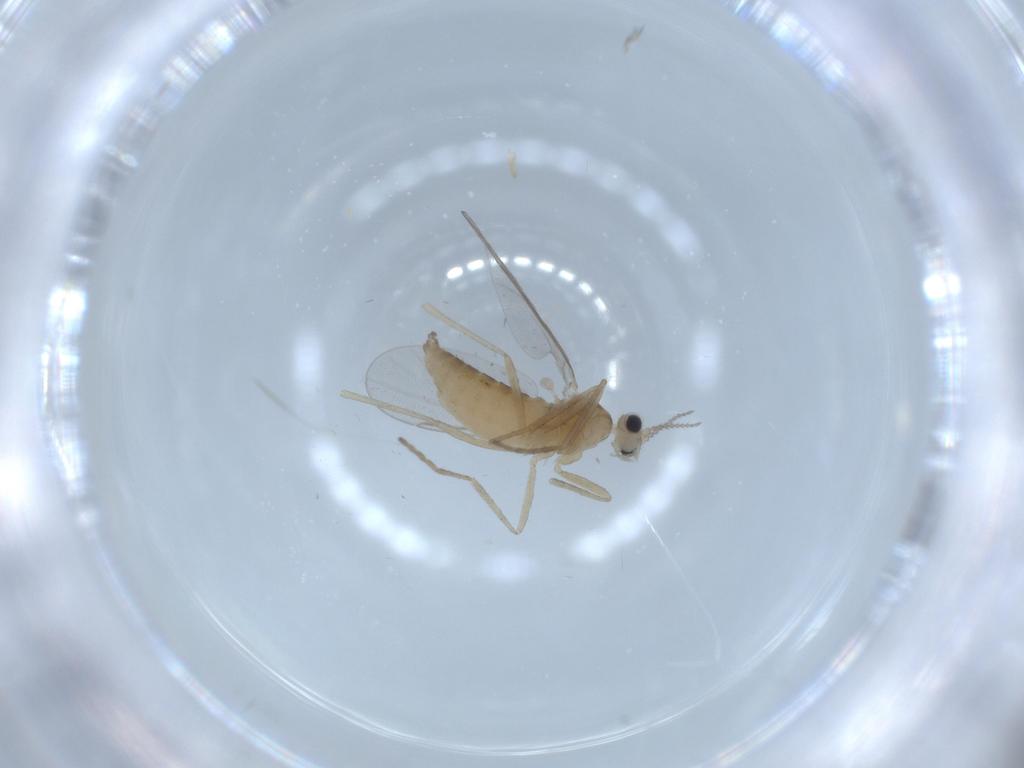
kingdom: Animalia
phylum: Arthropoda
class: Insecta
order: Diptera
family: Cecidomyiidae
